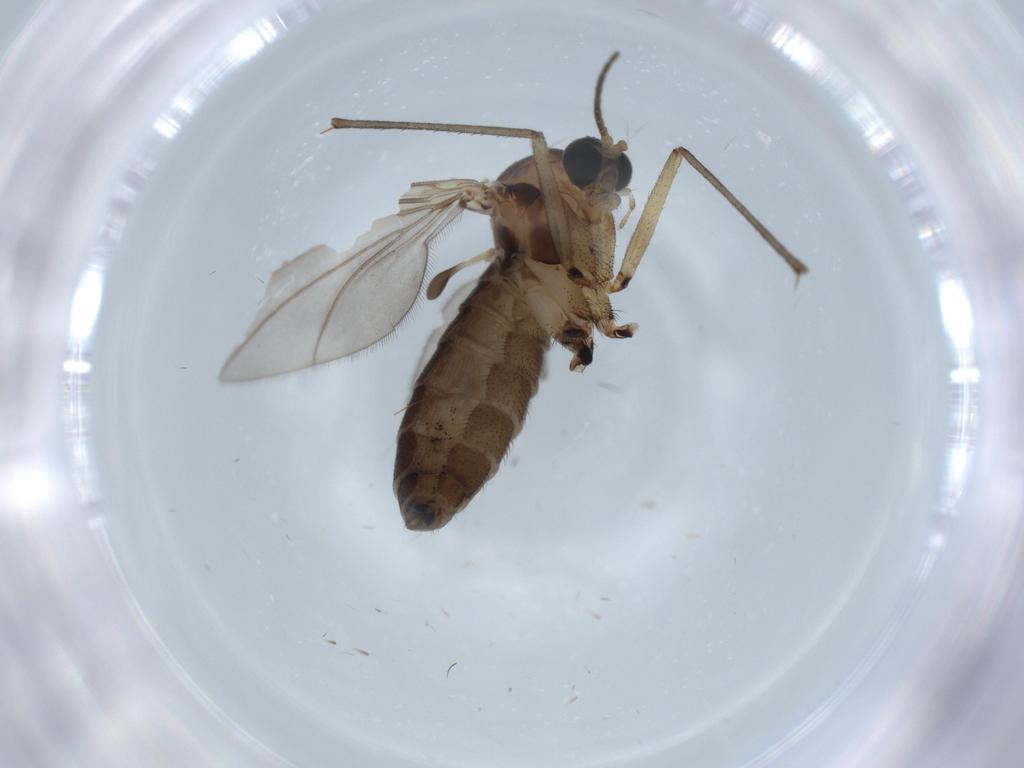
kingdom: Animalia
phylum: Arthropoda
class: Insecta
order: Diptera
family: Sciaridae
